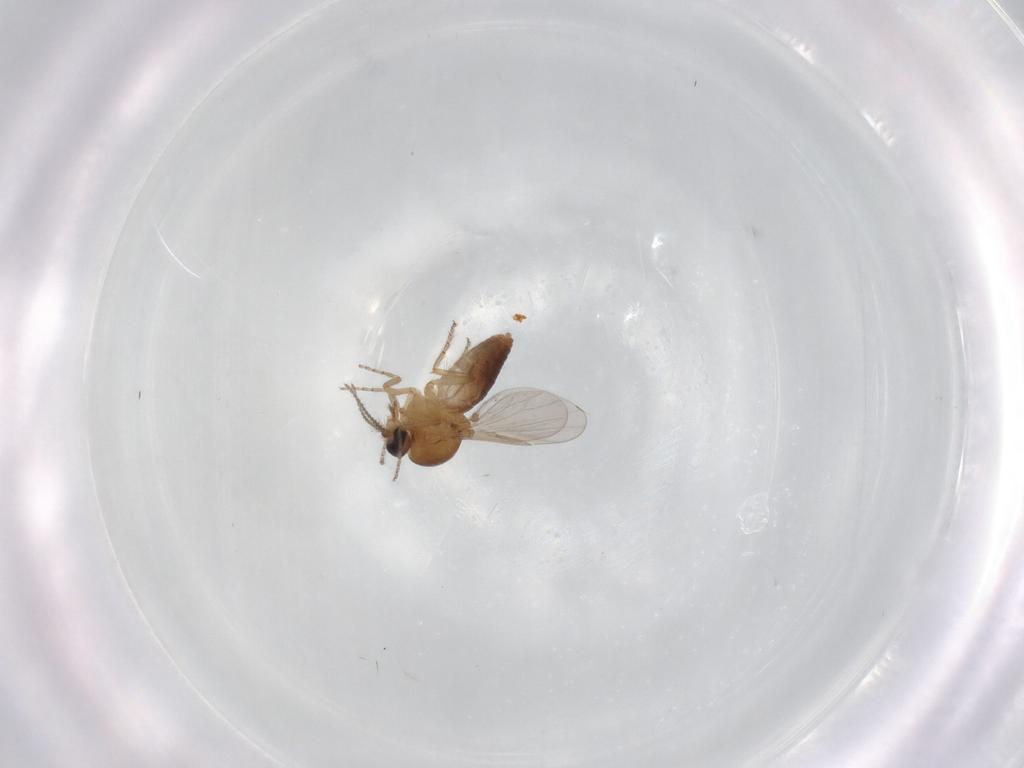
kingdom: Animalia
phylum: Arthropoda
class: Insecta
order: Diptera
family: Ceratopogonidae
